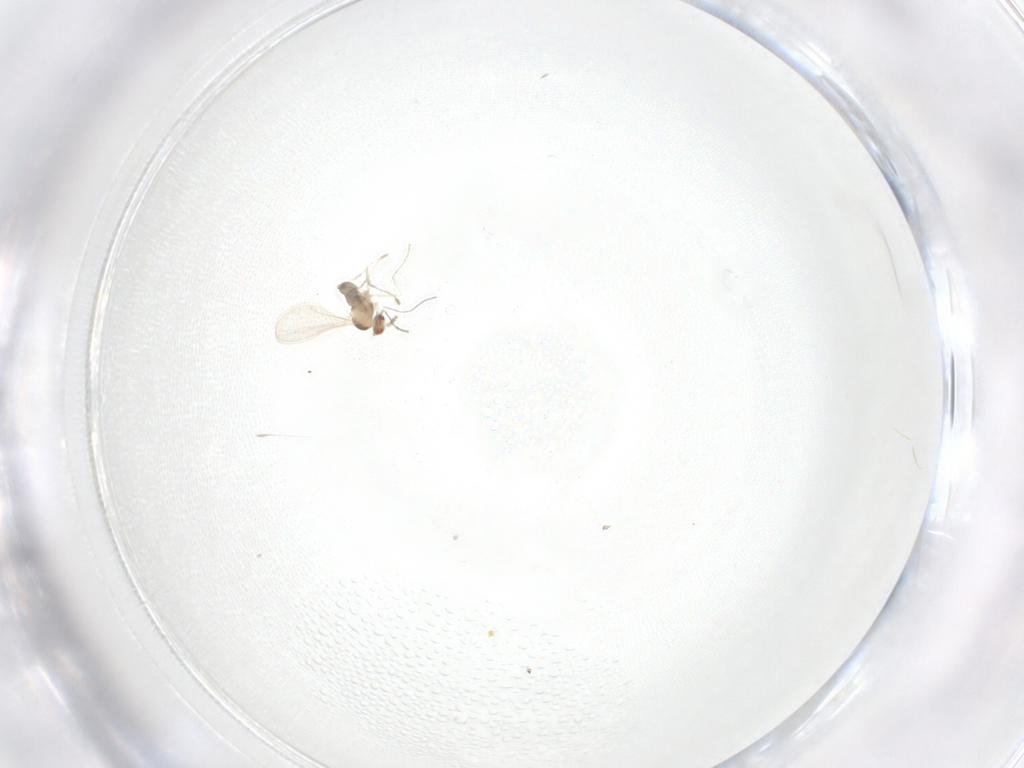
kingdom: Animalia
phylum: Arthropoda
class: Insecta
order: Diptera
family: Cecidomyiidae
